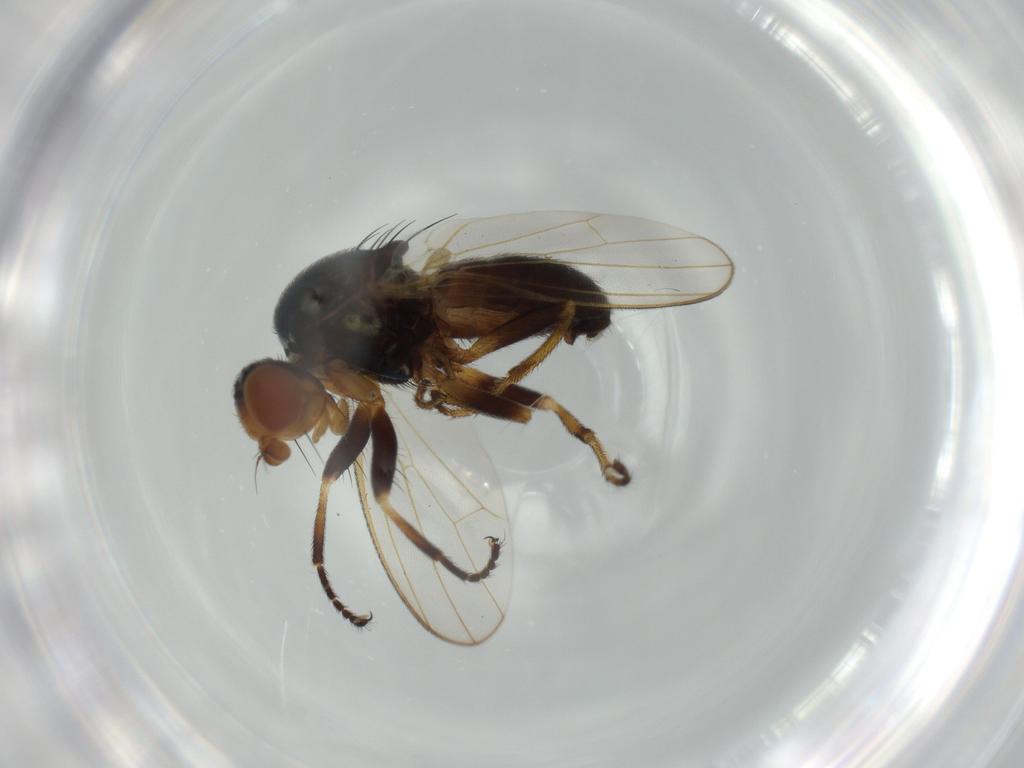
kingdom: Animalia
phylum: Arthropoda
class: Insecta
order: Diptera
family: Piophilidae
